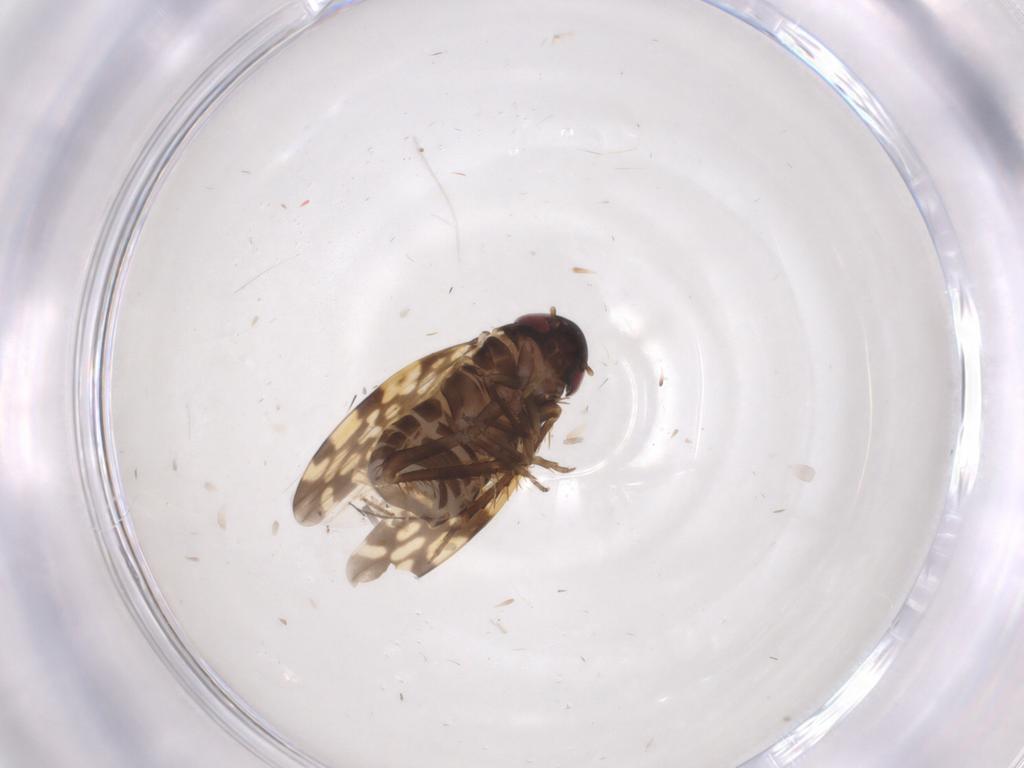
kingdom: Animalia
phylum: Arthropoda
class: Insecta
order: Hemiptera
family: Cicadellidae
